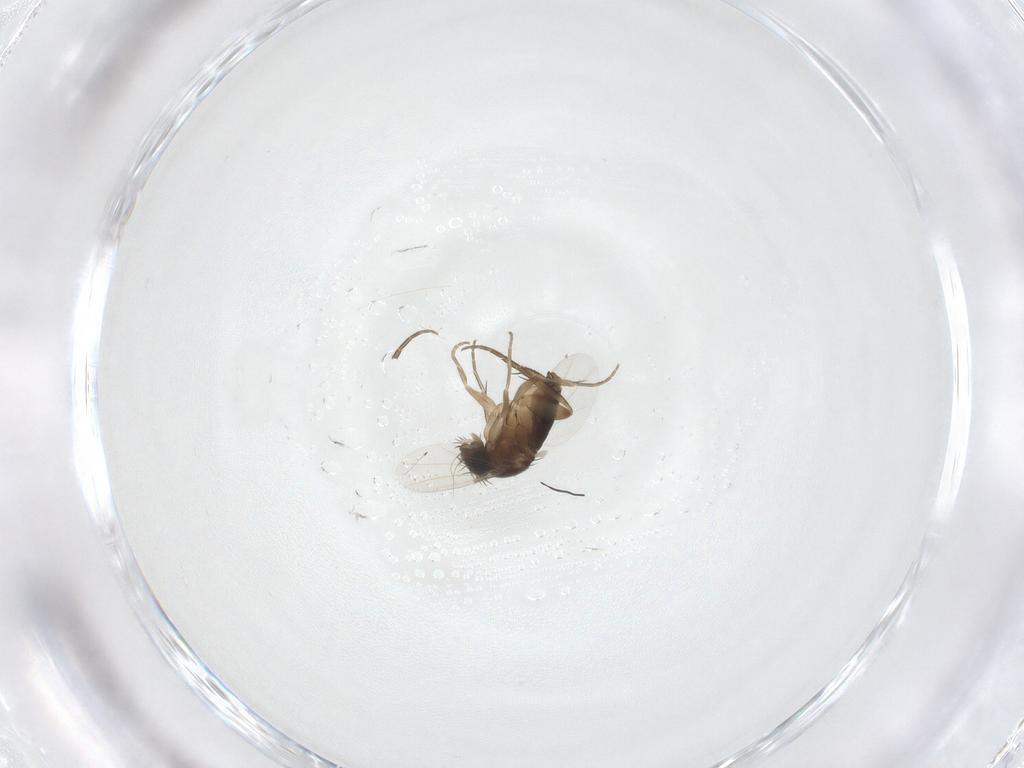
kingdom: Animalia
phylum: Arthropoda
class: Insecta
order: Diptera
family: Phoridae
